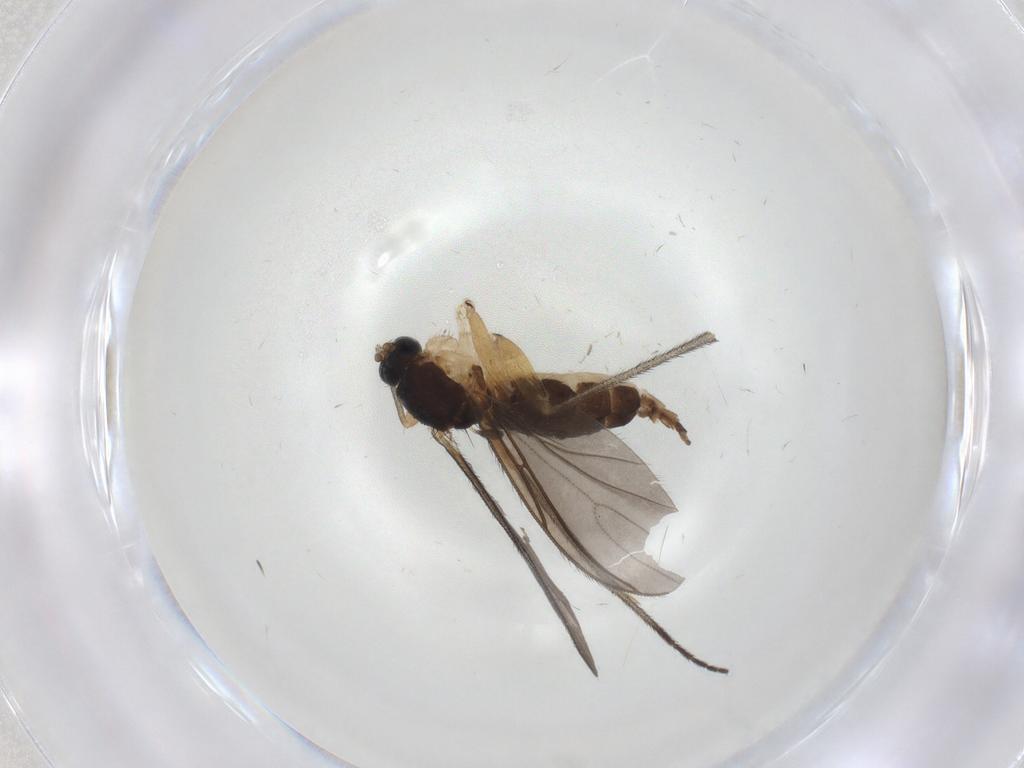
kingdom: Animalia
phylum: Arthropoda
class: Insecta
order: Diptera
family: Sciaridae
